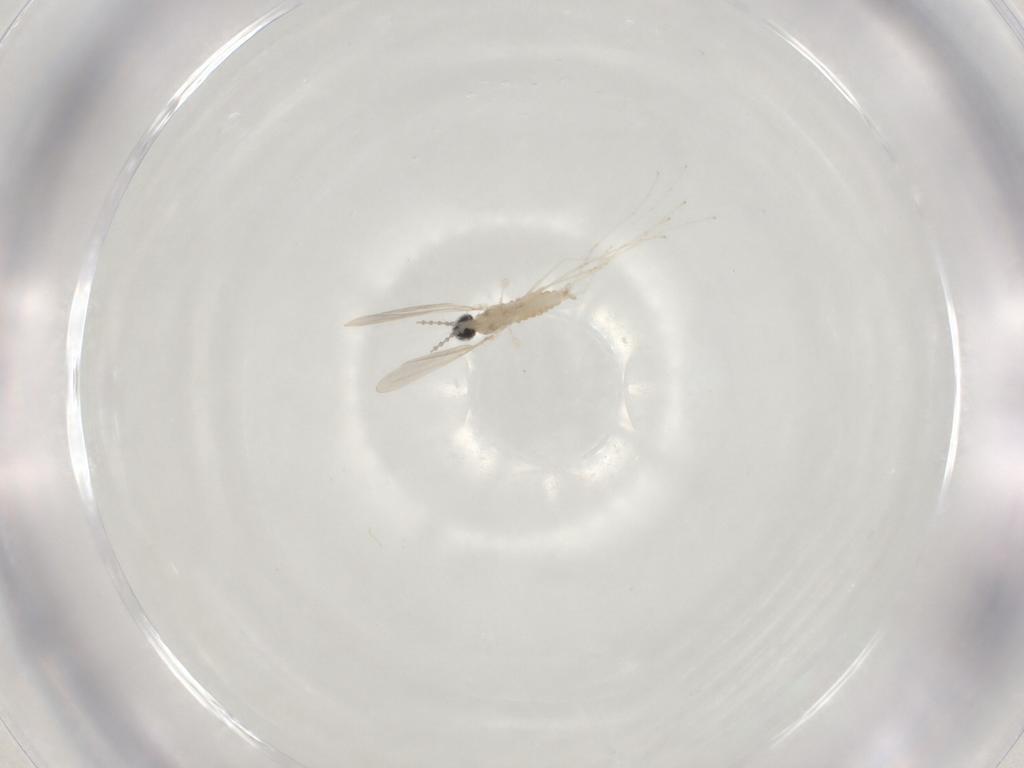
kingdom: Animalia
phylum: Arthropoda
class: Insecta
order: Diptera
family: Cecidomyiidae
